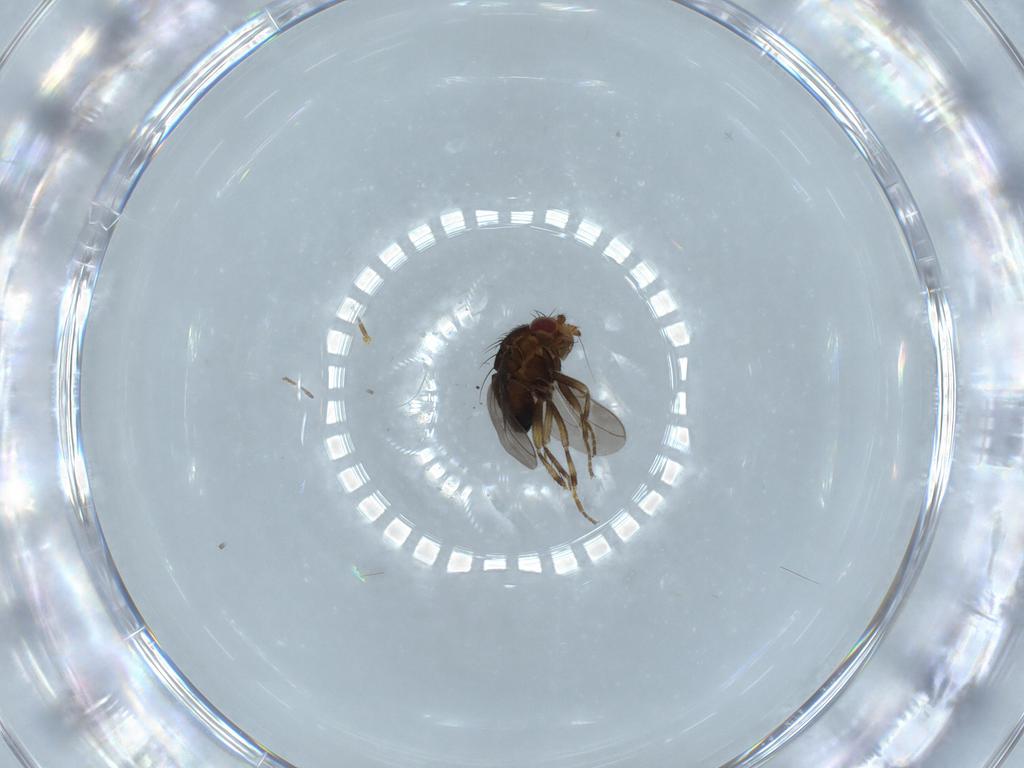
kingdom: Animalia
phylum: Arthropoda
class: Insecta
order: Diptera
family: Sphaeroceridae
